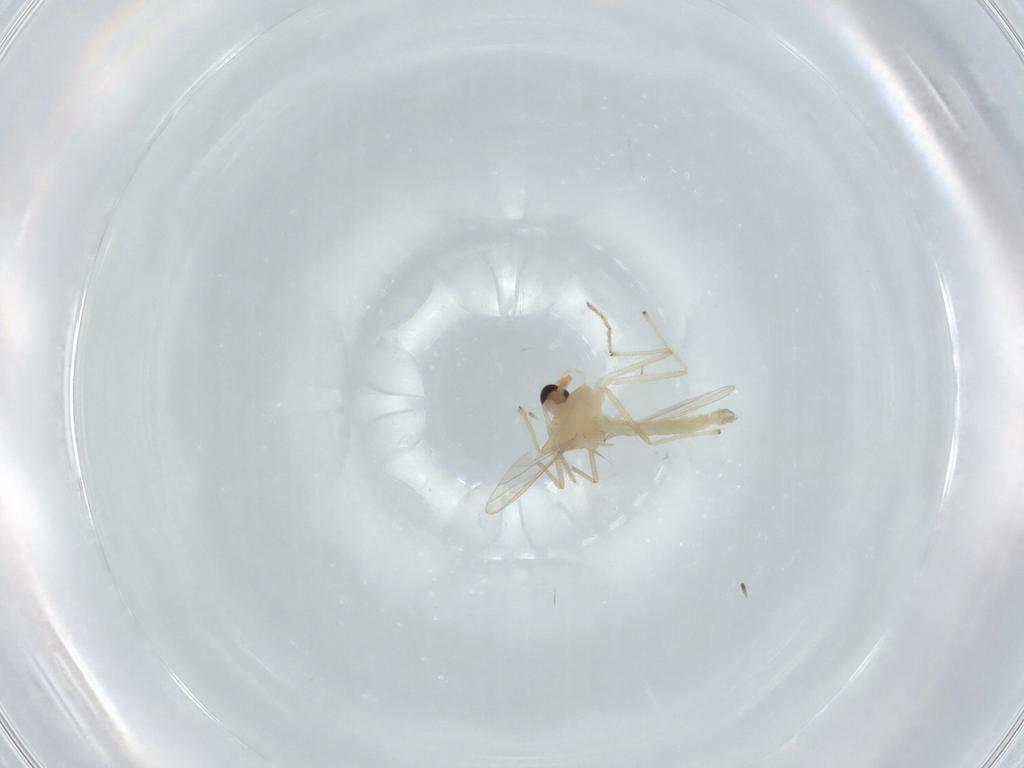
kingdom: Animalia
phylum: Arthropoda
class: Insecta
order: Diptera
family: Chironomidae
